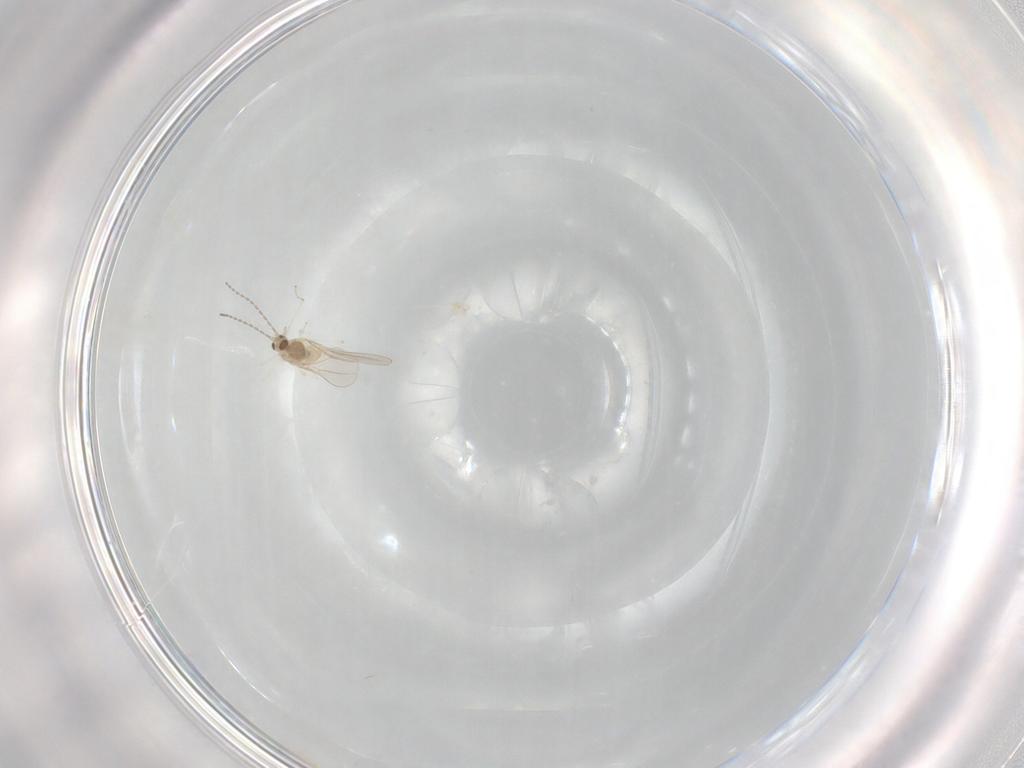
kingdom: Animalia
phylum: Arthropoda
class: Insecta
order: Diptera
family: Cecidomyiidae
